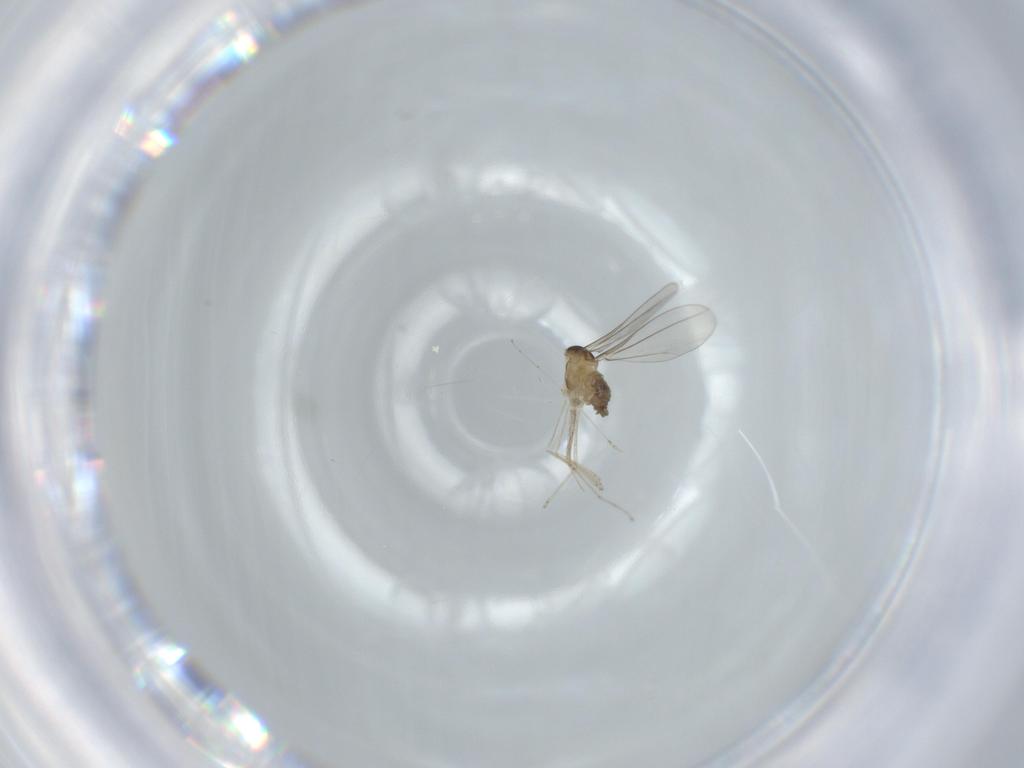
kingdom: Animalia
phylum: Arthropoda
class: Insecta
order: Diptera
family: Cecidomyiidae
